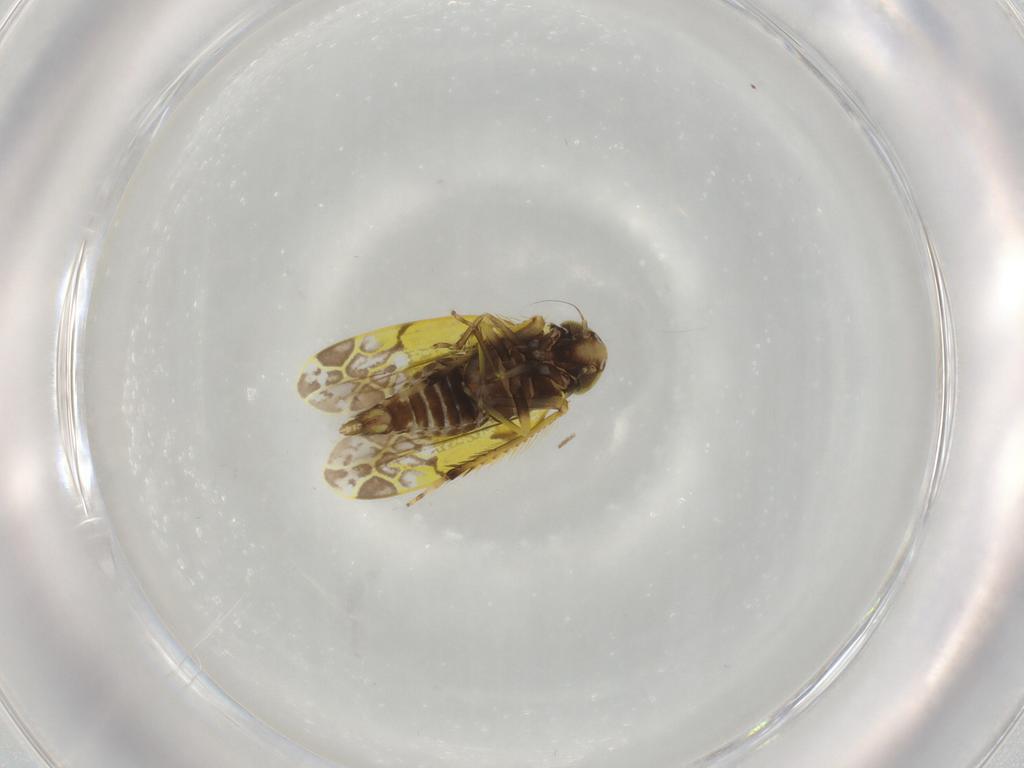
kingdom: Animalia
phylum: Arthropoda
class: Insecta
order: Hemiptera
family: Cicadellidae
